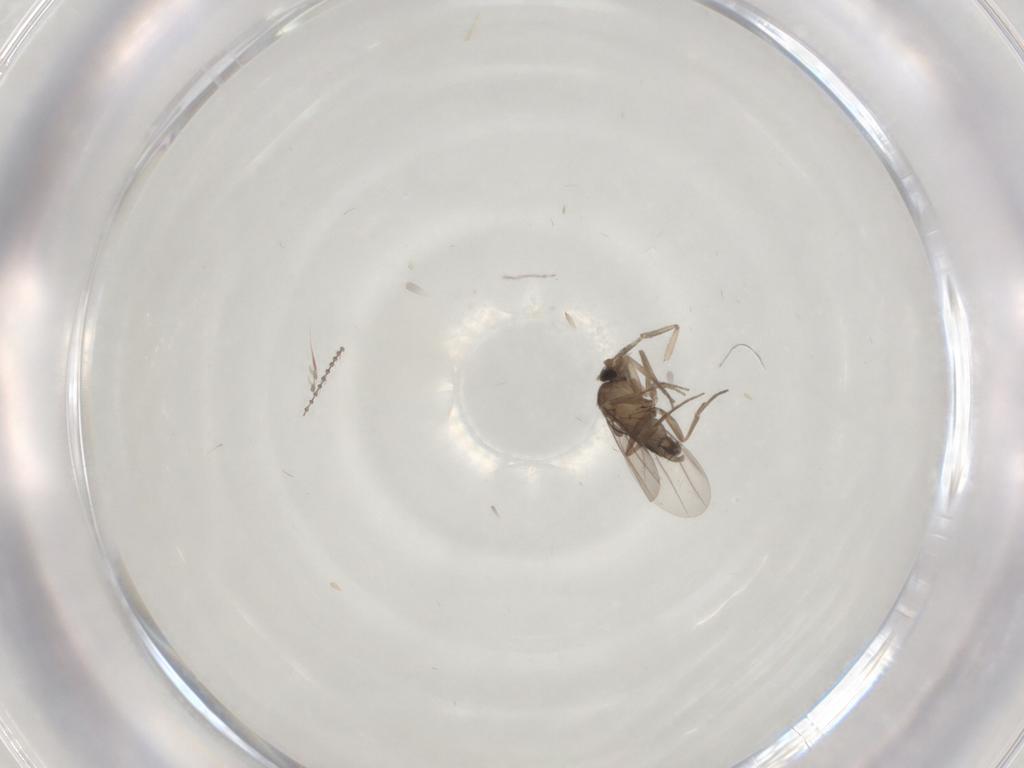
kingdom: Animalia
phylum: Arthropoda
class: Insecta
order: Diptera
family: Phoridae
